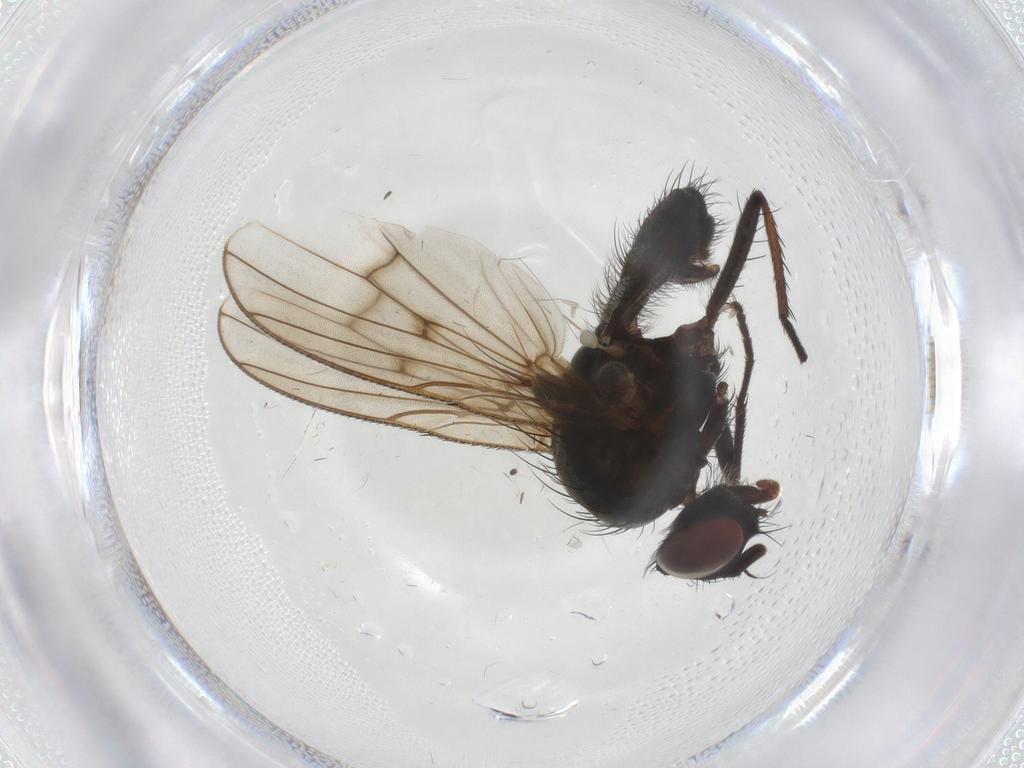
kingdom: Animalia
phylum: Arthropoda
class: Insecta
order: Diptera
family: Anthomyiidae
